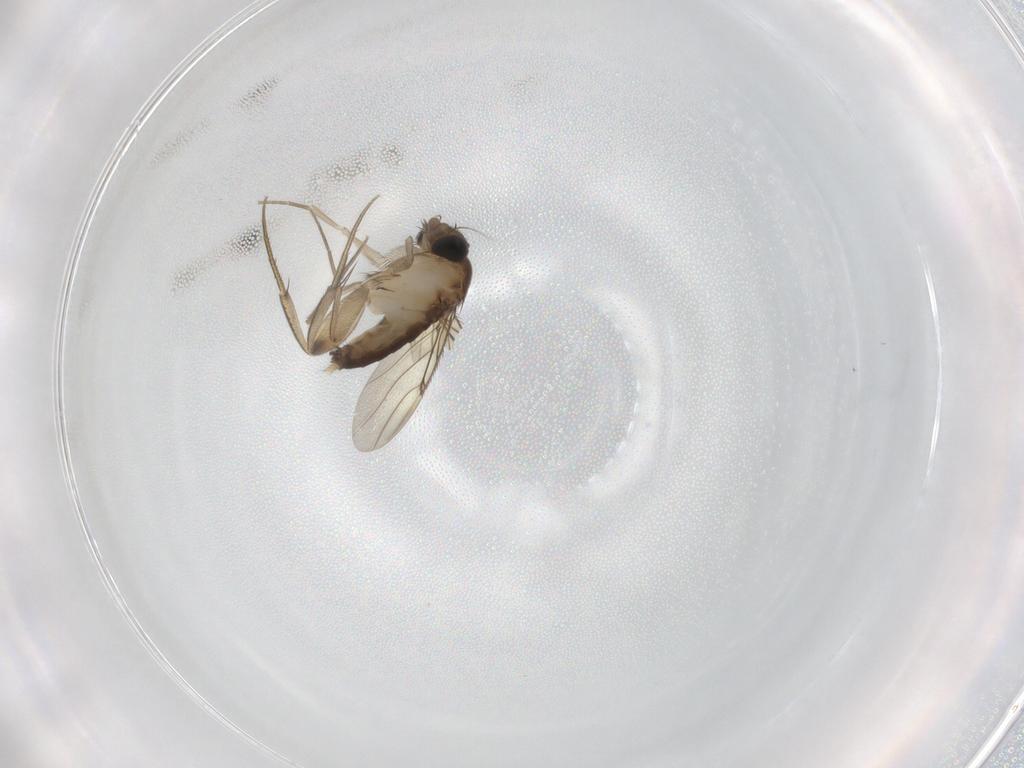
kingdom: Animalia
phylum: Arthropoda
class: Insecta
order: Diptera
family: Phoridae
